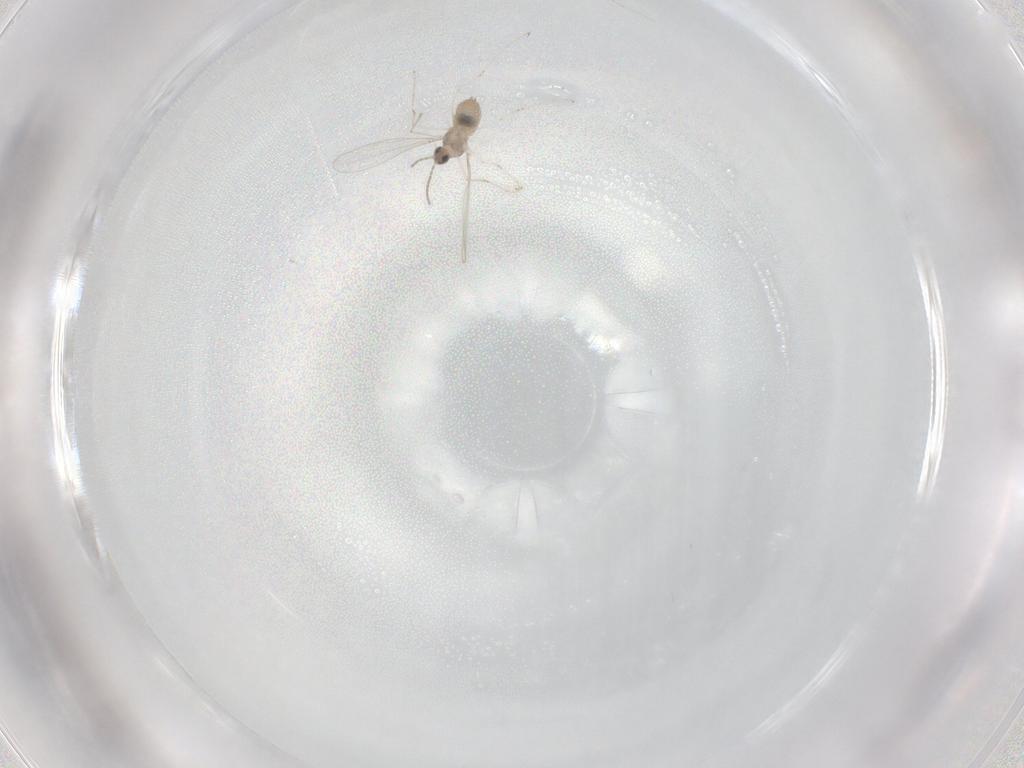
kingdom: Animalia
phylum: Arthropoda
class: Insecta
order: Diptera
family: Cecidomyiidae
